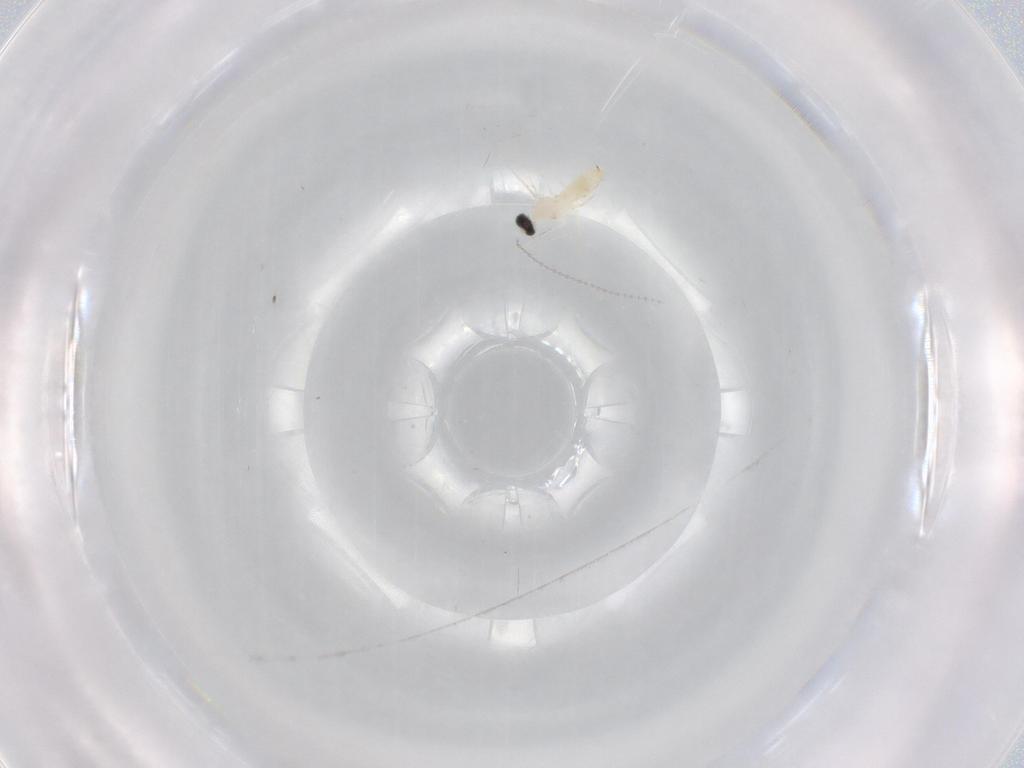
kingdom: Animalia
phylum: Arthropoda
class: Insecta
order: Diptera
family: Cecidomyiidae
